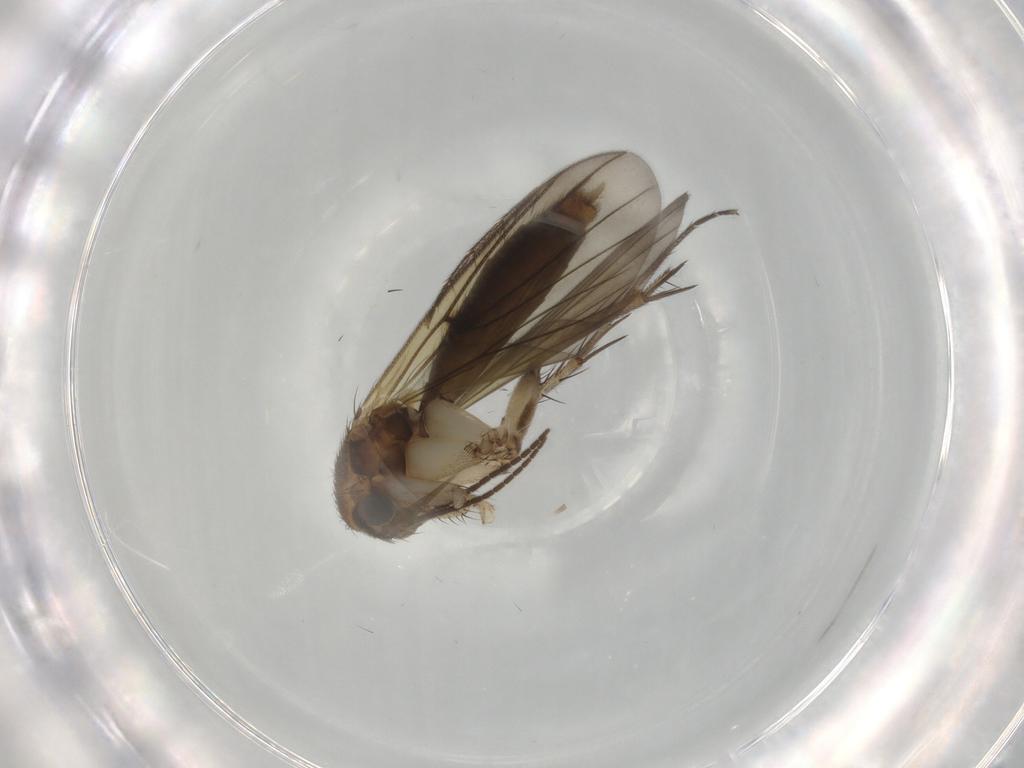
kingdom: Animalia
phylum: Arthropoda
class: Insecta
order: Diptera
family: Mycetophilidae
